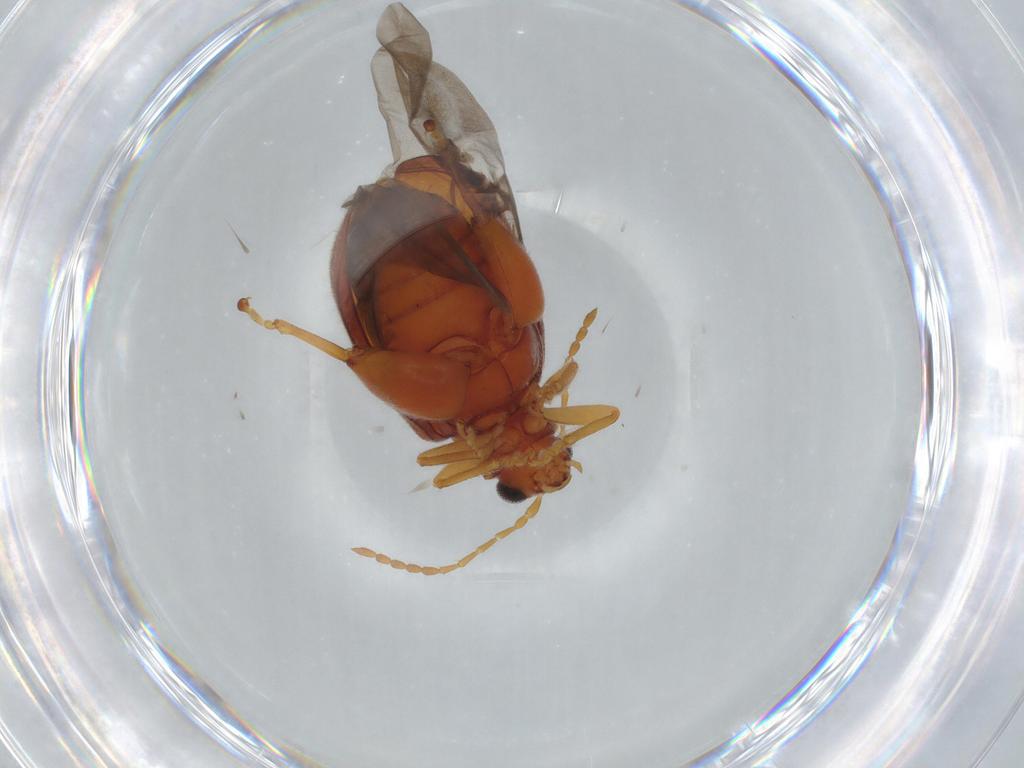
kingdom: Animalia
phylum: Arthropoda
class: Insecta
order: Coleoptera
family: Chrysomelidae
